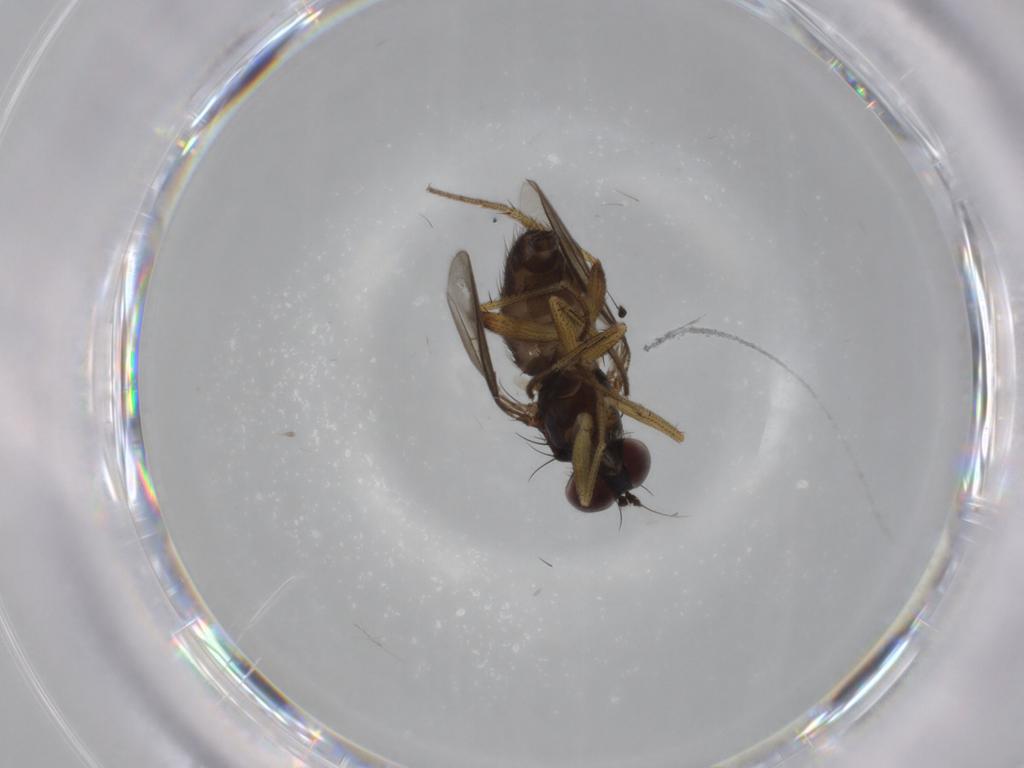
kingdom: Animalia
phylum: Arthropoda
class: Insecta
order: Diptera
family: Dolichopodidae
